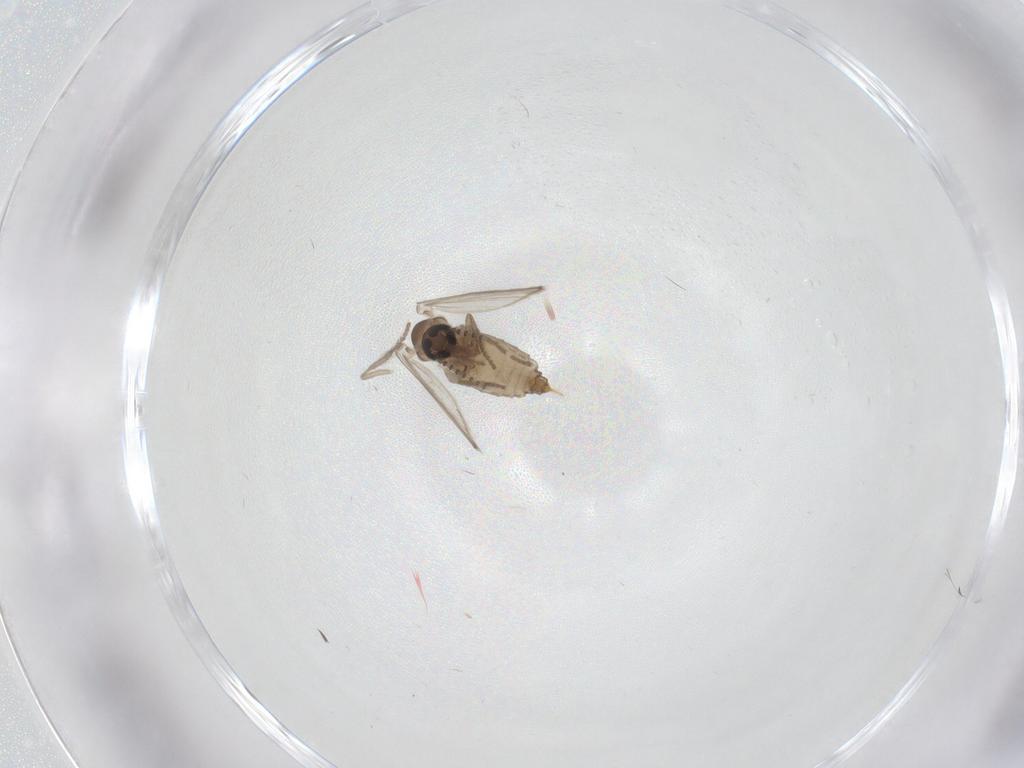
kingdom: Animalia
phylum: Arthropoda
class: Insecta
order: Diptera
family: Psychodidae
